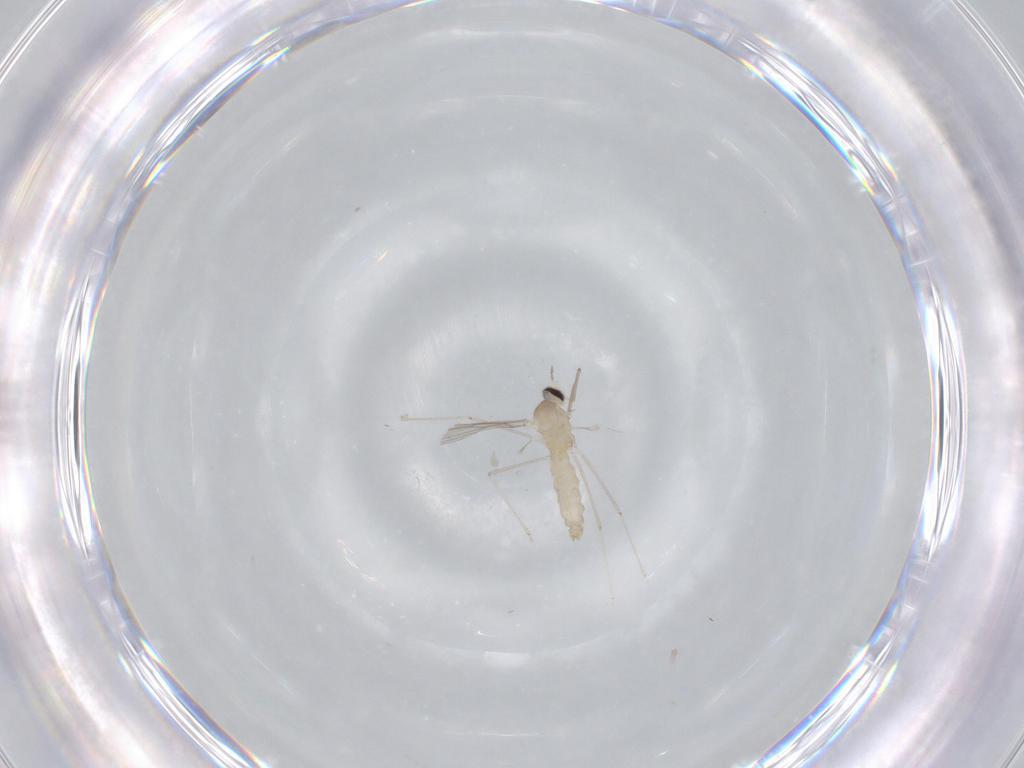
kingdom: Animalia
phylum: Arthropoda
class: Insecta
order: Diptera
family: Cecidomyiidae
